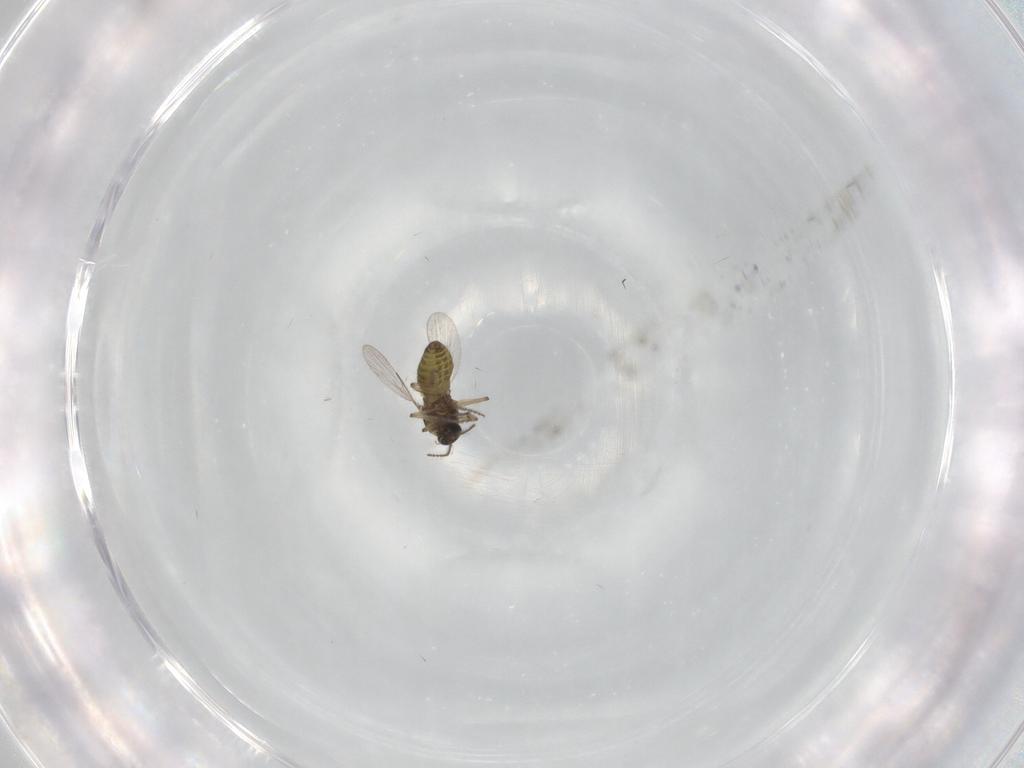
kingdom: Animalia
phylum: Arthropoda
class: Insecta
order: Diptera
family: Ceratopogonidae
